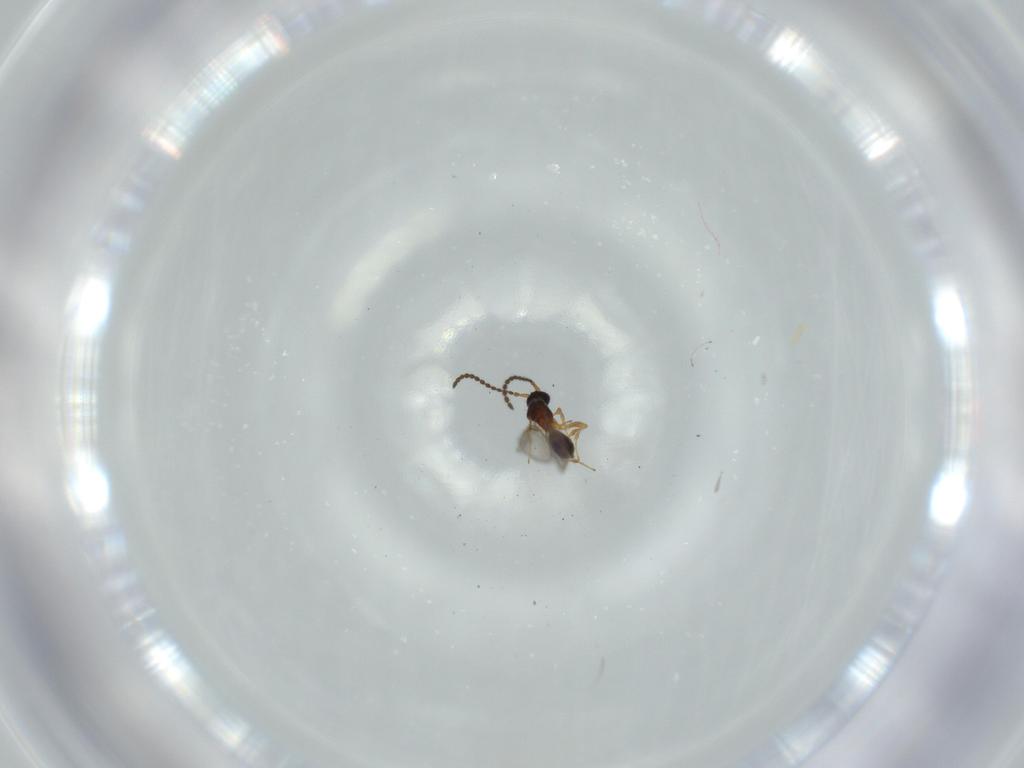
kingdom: Animalia
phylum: Arthropoda
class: Insecta
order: Hymenoptera
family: Diapriidae
